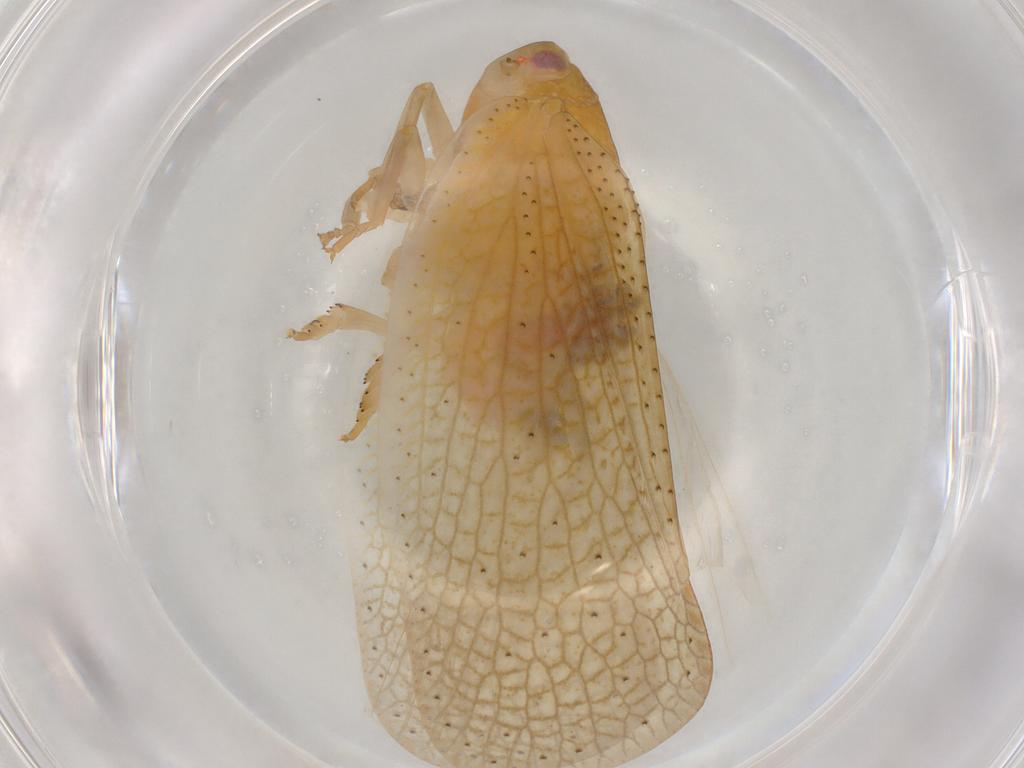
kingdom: Animalia
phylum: Arthropoda
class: Insecta
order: Hemiptera
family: Flatidae
